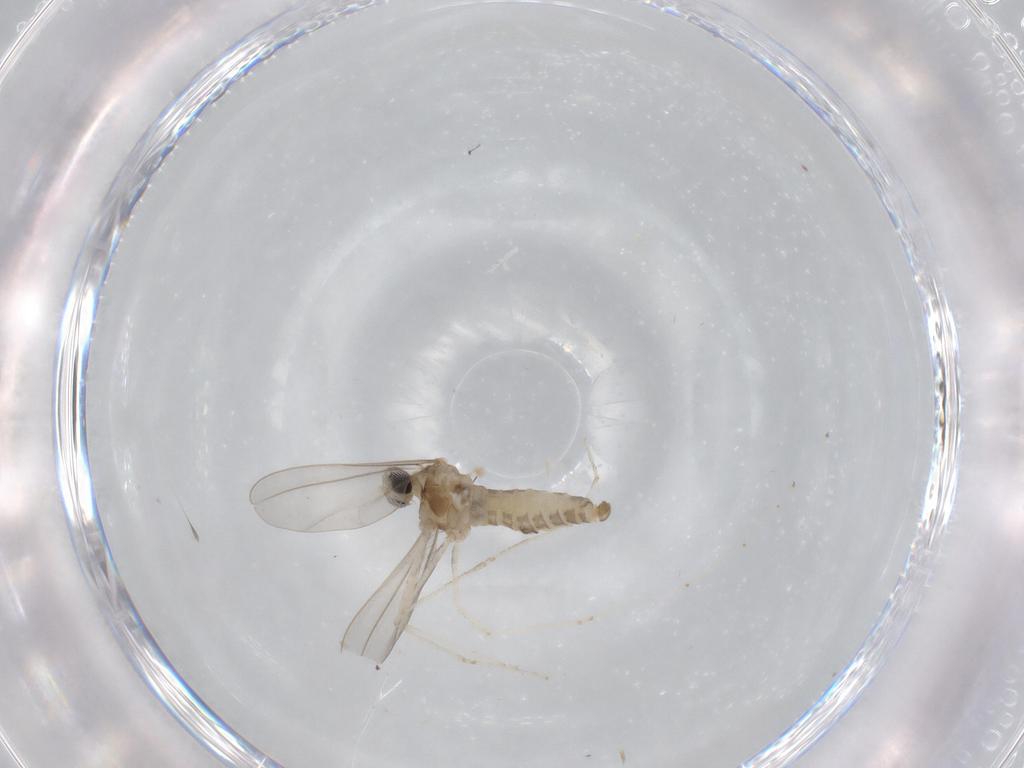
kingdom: Animalia
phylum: Arthropoda
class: Insecta
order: Diptera
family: Cecidomyiidae
